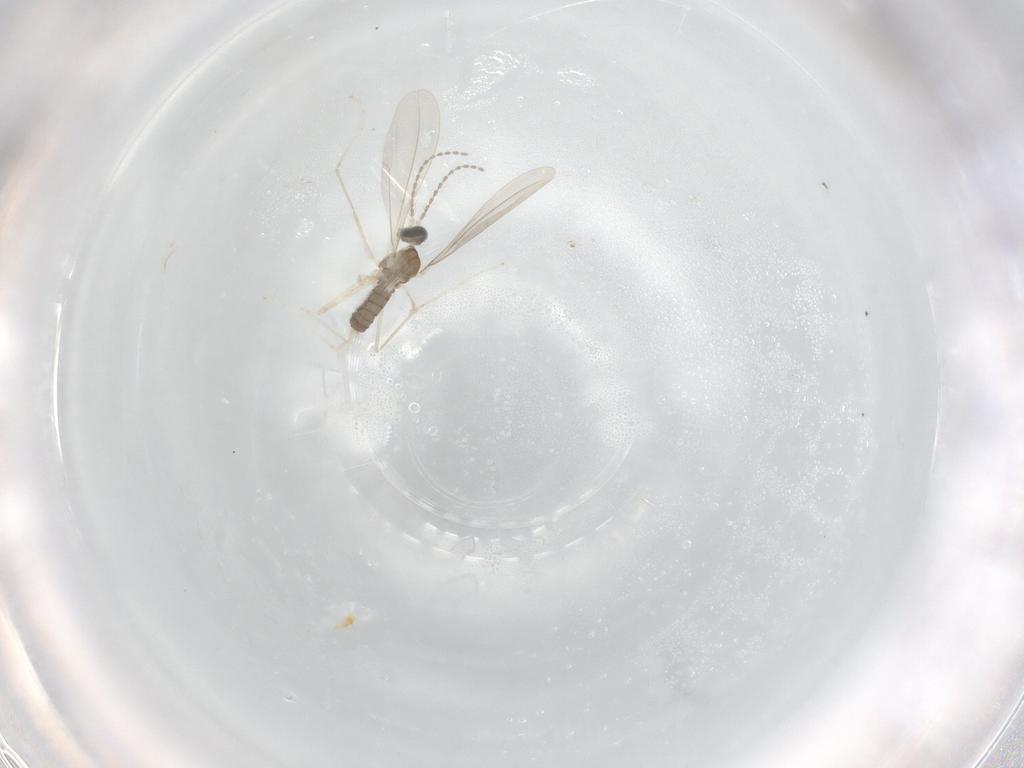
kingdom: Animalia
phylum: Arthropoda
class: Insecta
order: Diptera
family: Cecidomyiidae
